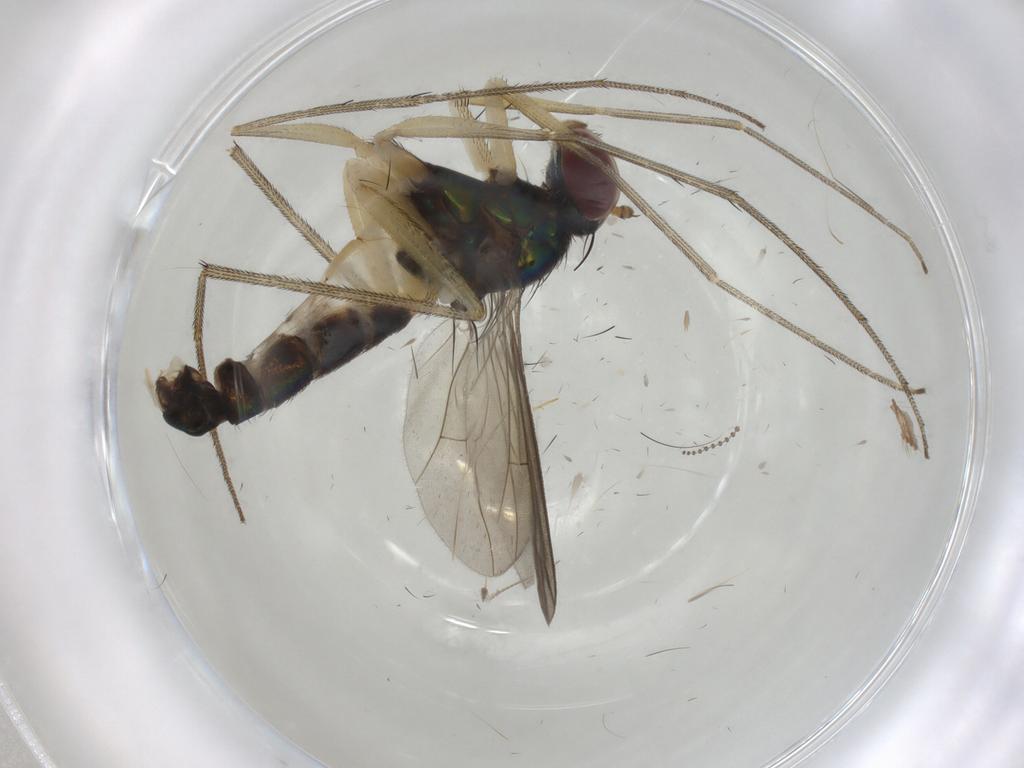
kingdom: Animalia
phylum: Arthropoda
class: Insecta
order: Diptera
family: Dolichopodidae
